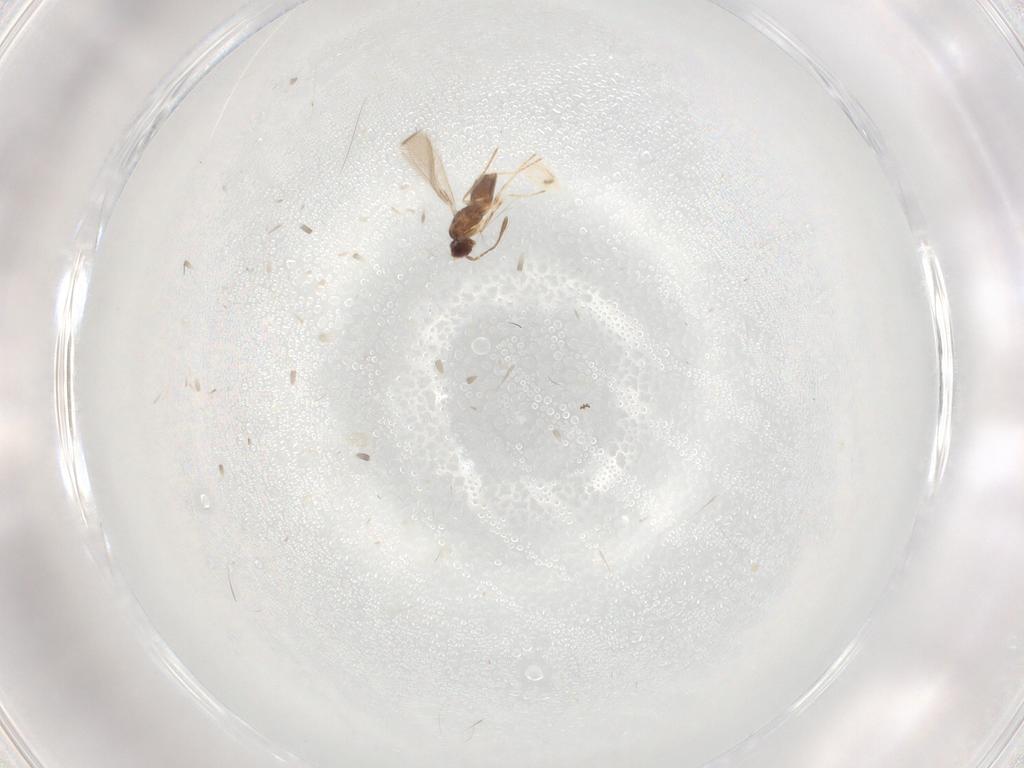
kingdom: Animalia
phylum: Arthropoda
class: Insecta
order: Hymenoptera
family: Mymaridae
